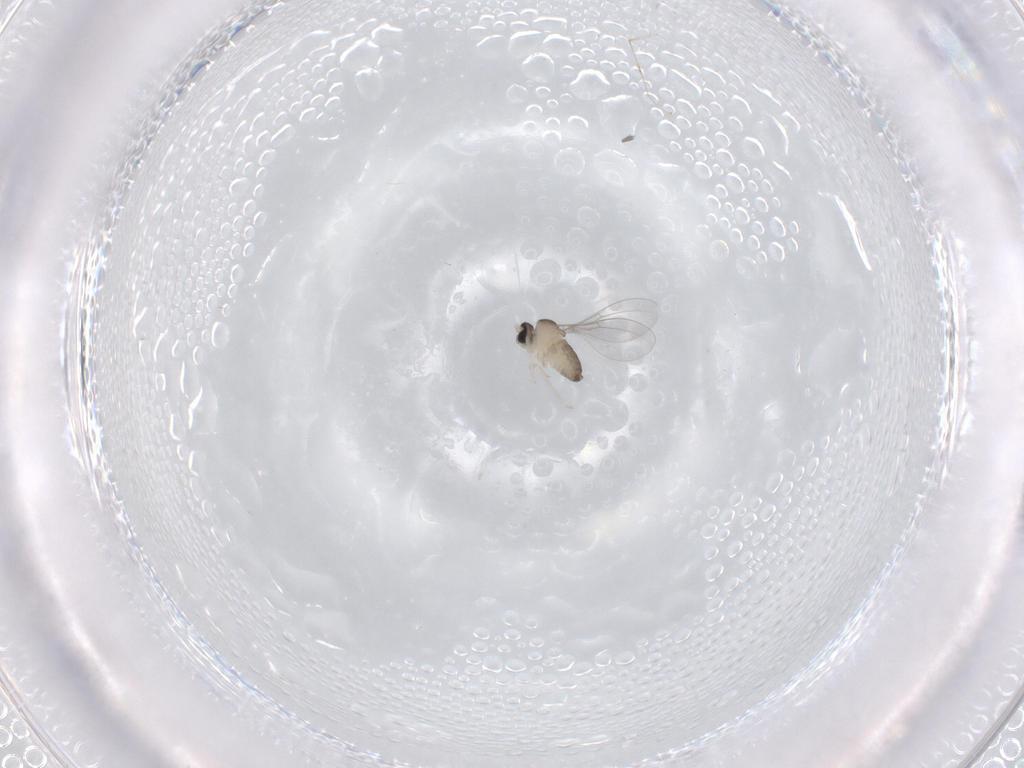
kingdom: Animalia
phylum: Arthropoda
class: Insecta
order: Diptera
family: Cecidomyiidae
